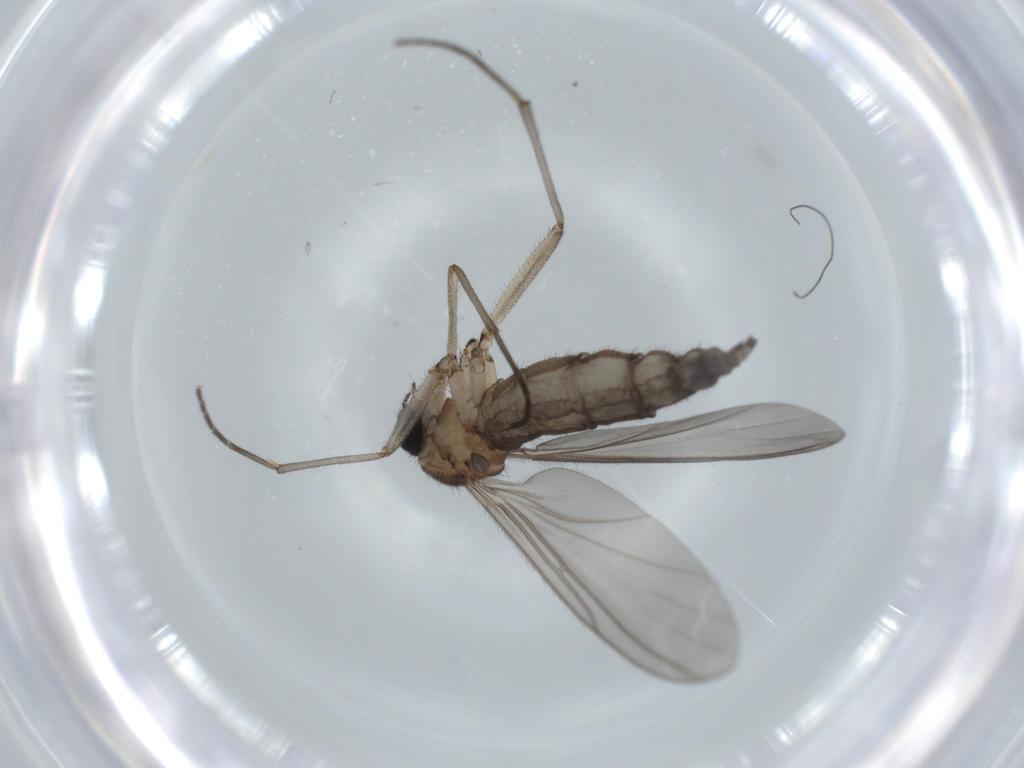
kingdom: Animalia
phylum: Arthropoda
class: Insecta
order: Diptera
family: Sciaridae
